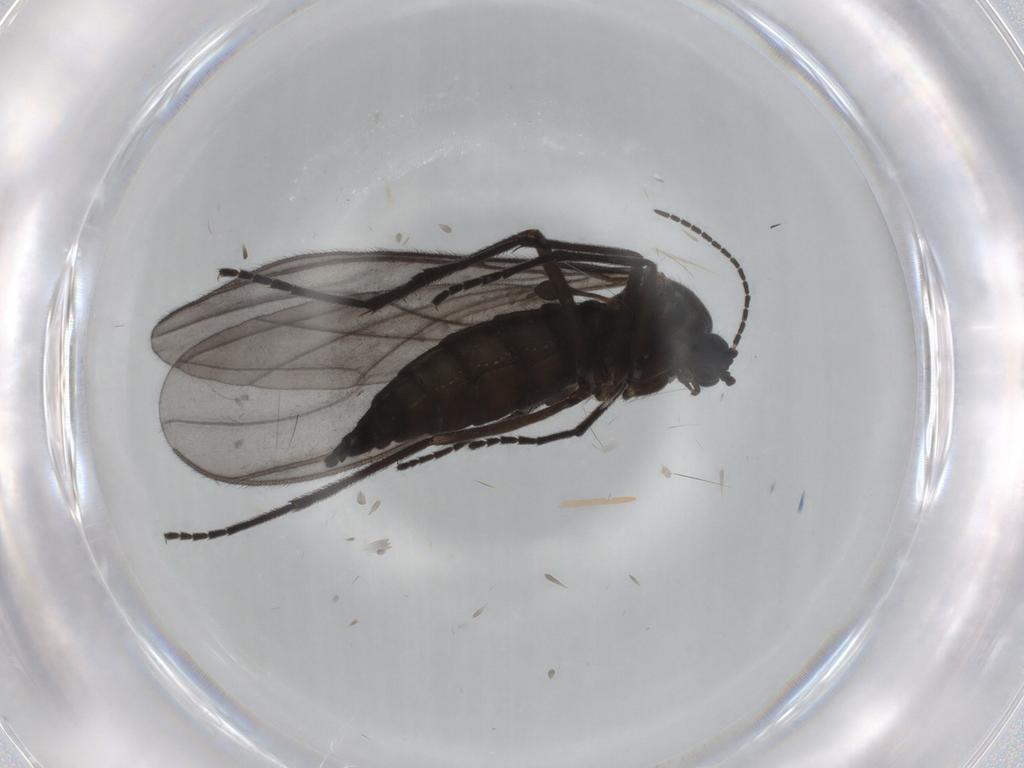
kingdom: Animalia
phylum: Arthropoda
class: Insecta
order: Diptera
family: Sciaridae
